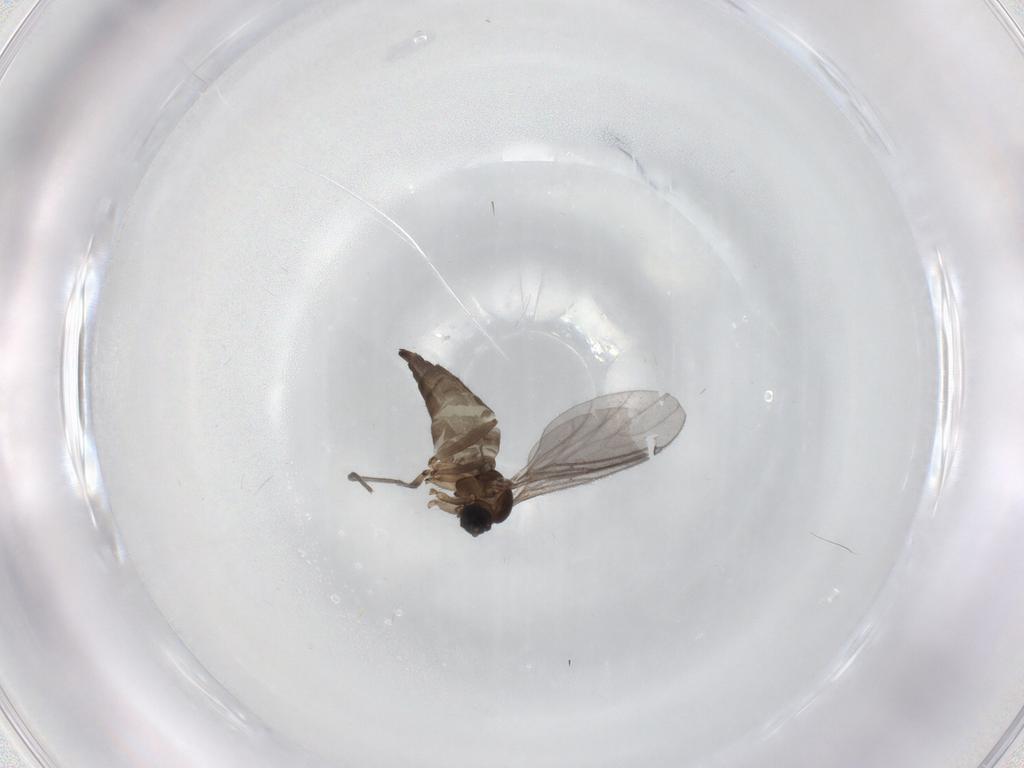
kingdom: Animalia
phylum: Arthropoda
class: Insecta
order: Diptera
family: Sciaridae
